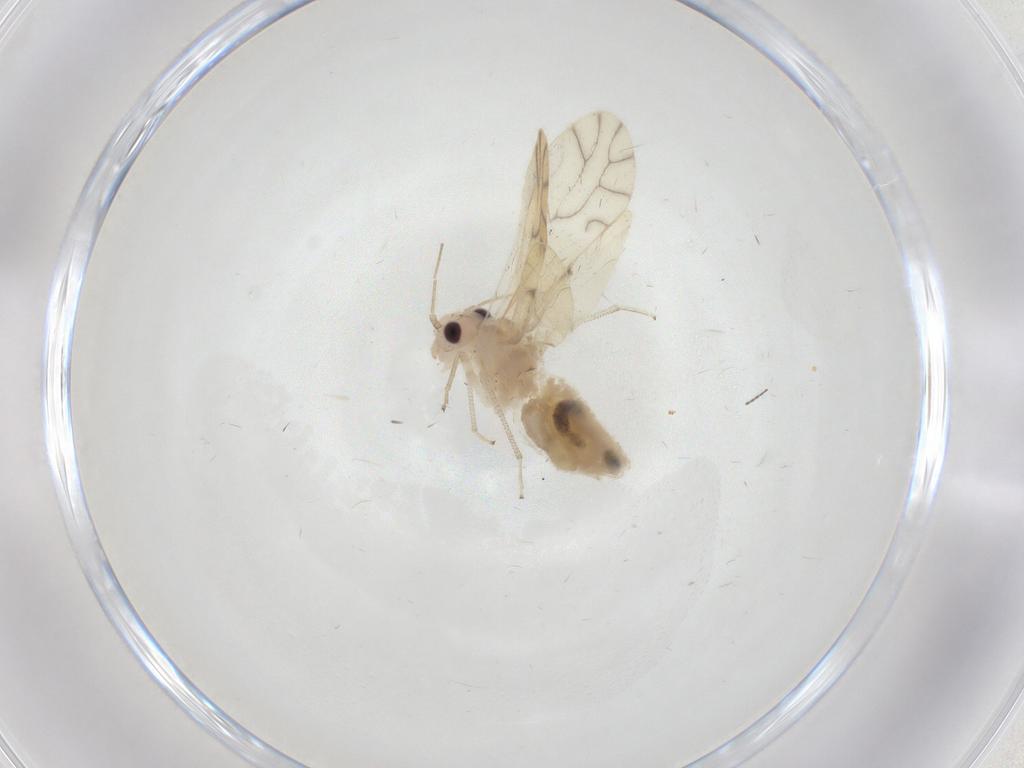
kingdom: Animalia
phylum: Arthropoda
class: Insecta
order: Psocodea
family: Caeciliusidae
